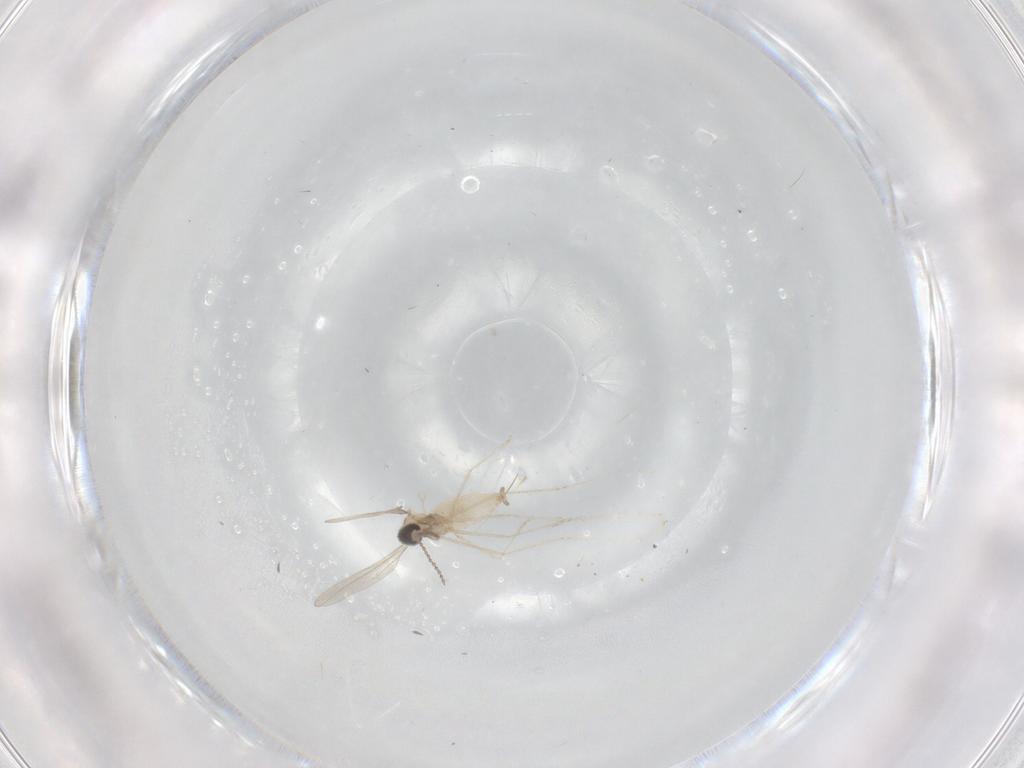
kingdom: Animalia
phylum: Arthropoda
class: Insecta
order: Diptera
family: Cecidomyiidae
